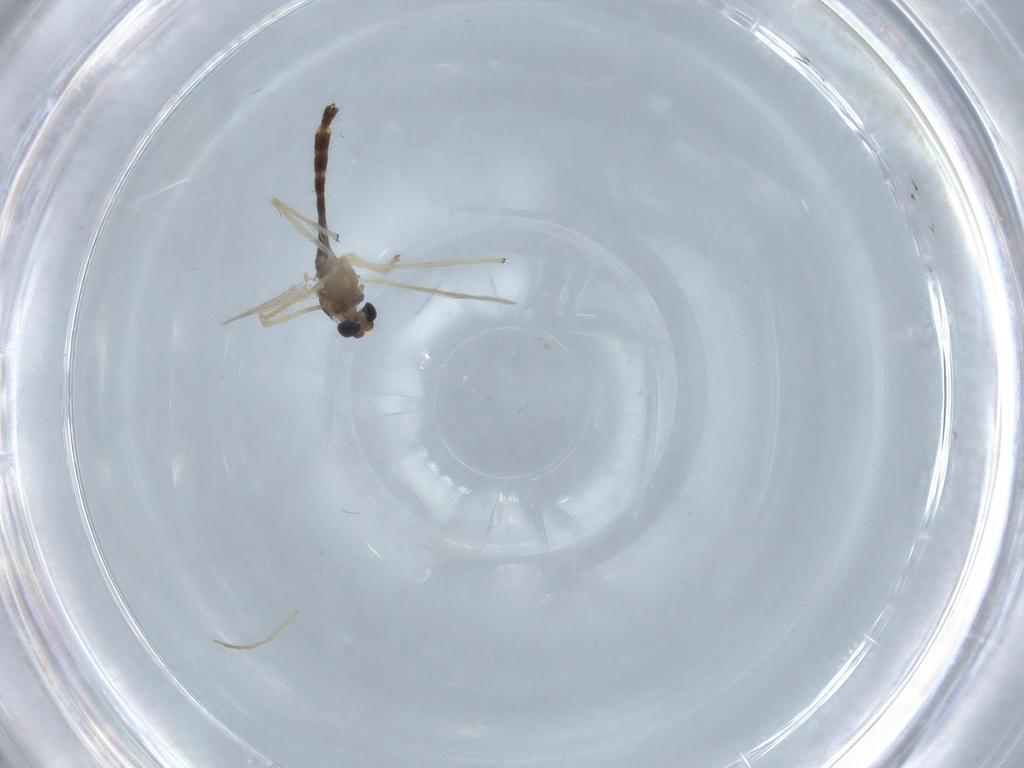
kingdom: Animalia
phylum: Arthropoda
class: Insecta
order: Diptera
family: Chironomidae
